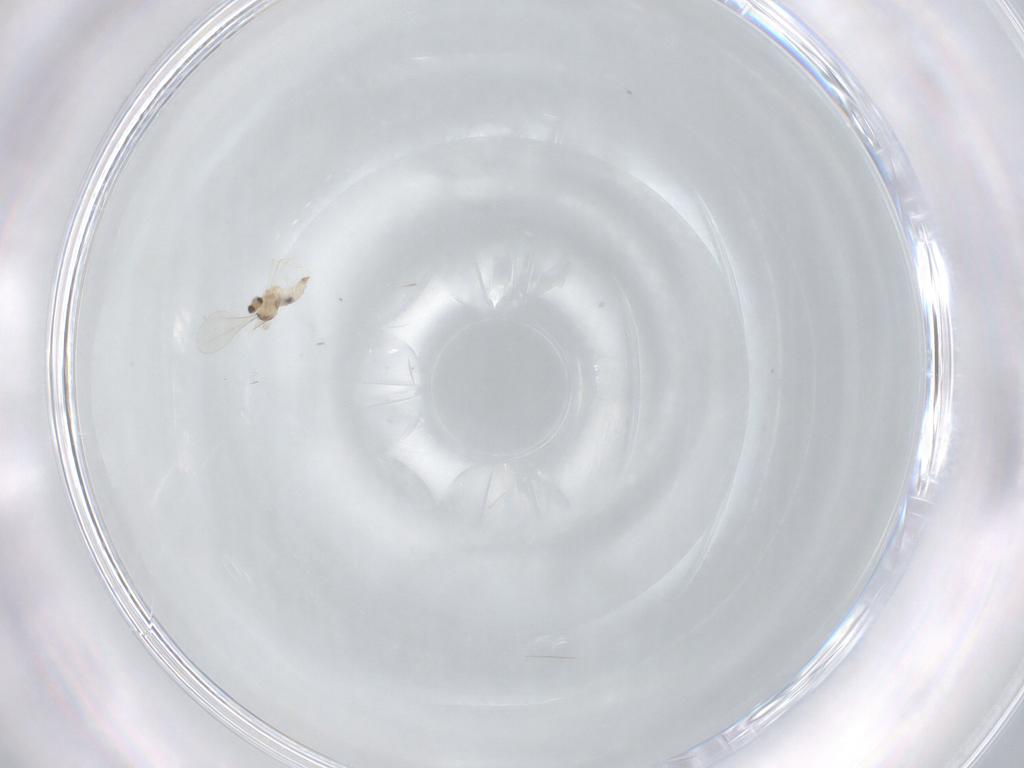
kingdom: Animalia
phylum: Arthropoda
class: Insecta
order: Diptera
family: Cecidomyiidae
